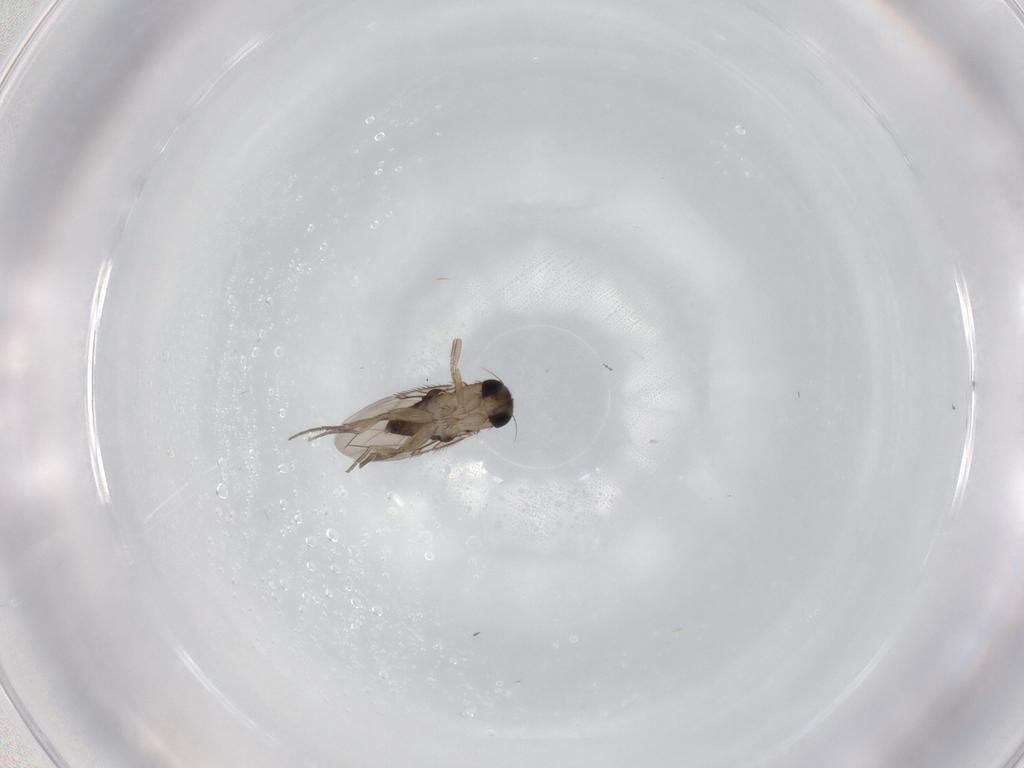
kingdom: Animalia
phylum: Arthropoda
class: Insecta
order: Diptera
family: Phoridae
